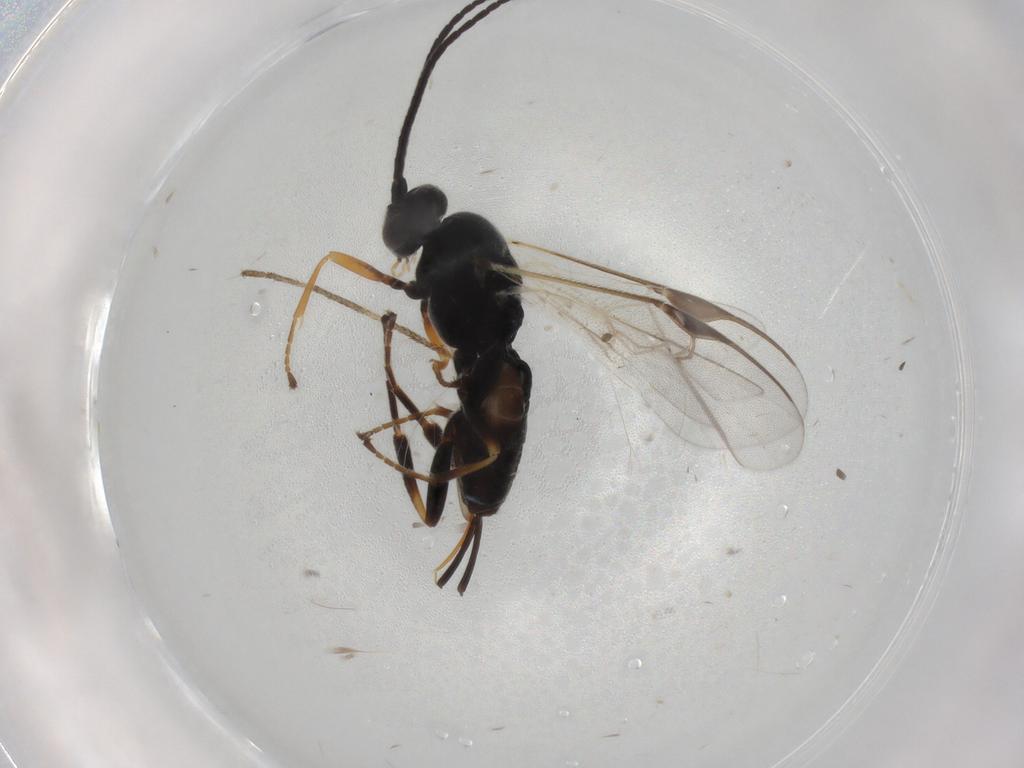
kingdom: Animalia
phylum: Arthropoda
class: Insecta
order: Hymenoptera
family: Braconidae
